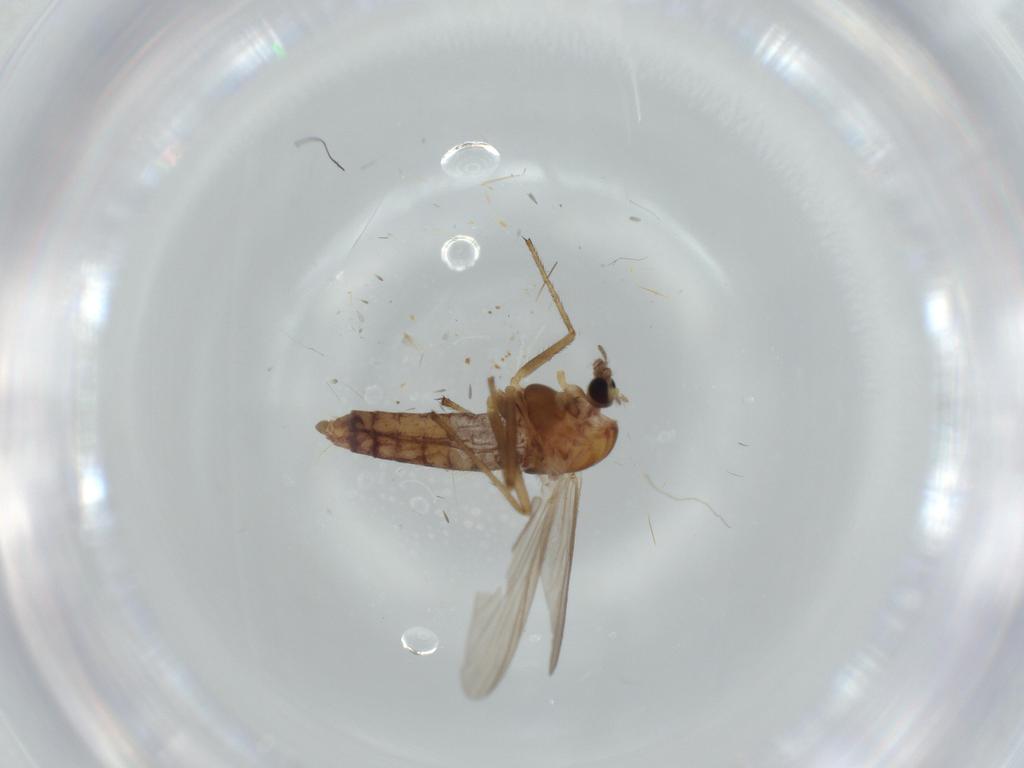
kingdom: Animalia
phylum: Arthropoda
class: Insecta
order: Diptera
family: Chironomidae
